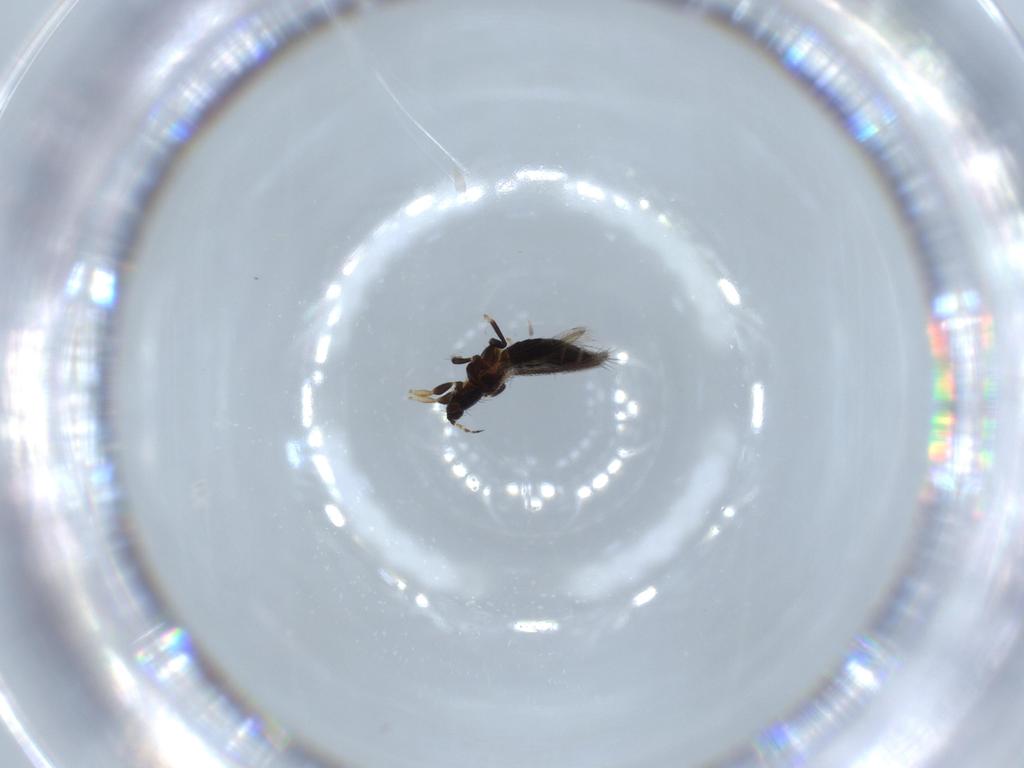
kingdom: Animalia
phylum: Arthropoda
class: Insecta
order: Thysanoptera
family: Thripidae
